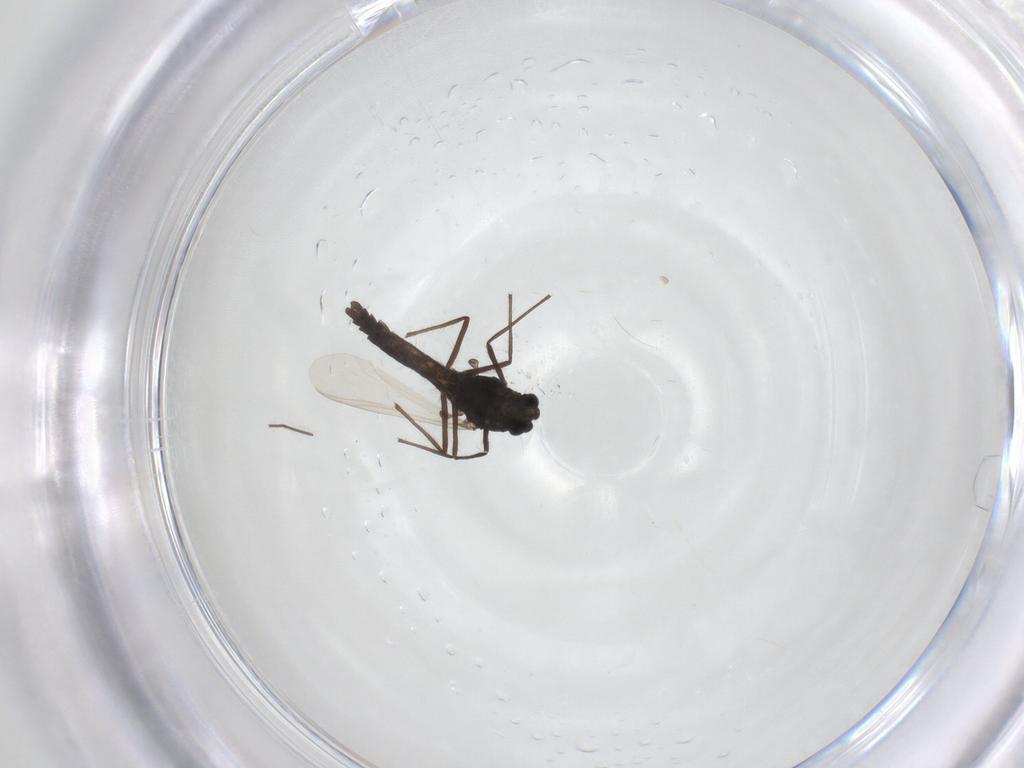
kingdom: Animalia
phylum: Arthropoda
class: Insecta
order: Diptera
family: Chironomidae
